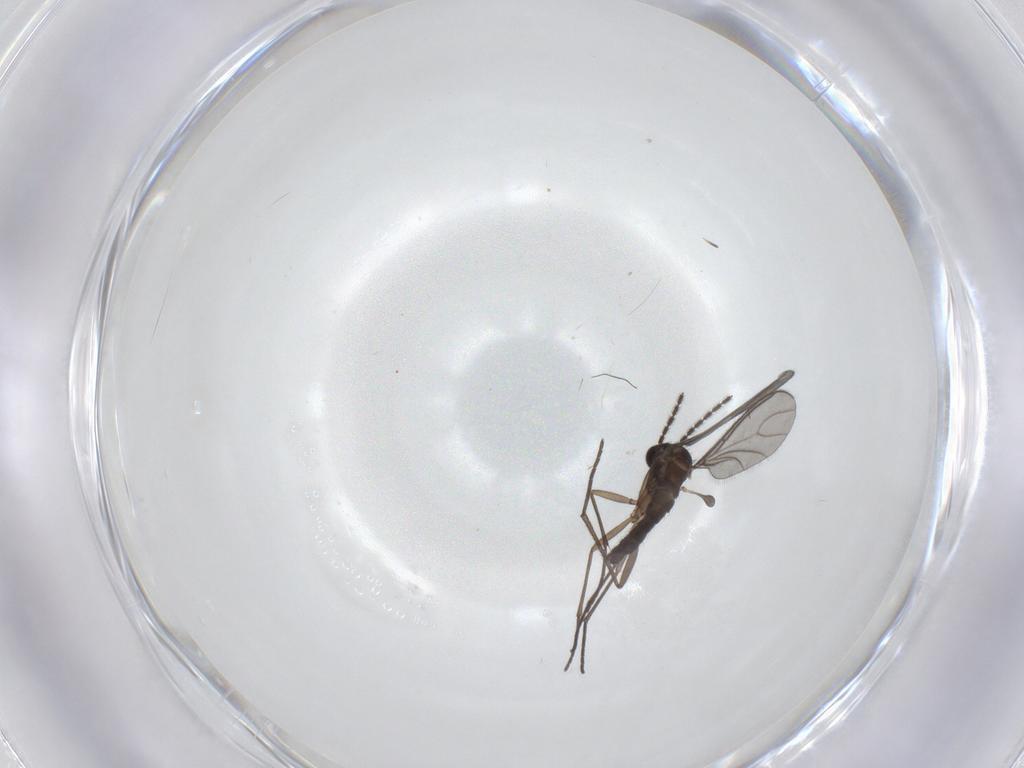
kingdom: Animalia
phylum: Arthropoda
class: Insecta
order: Diptera
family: Sciaridae
